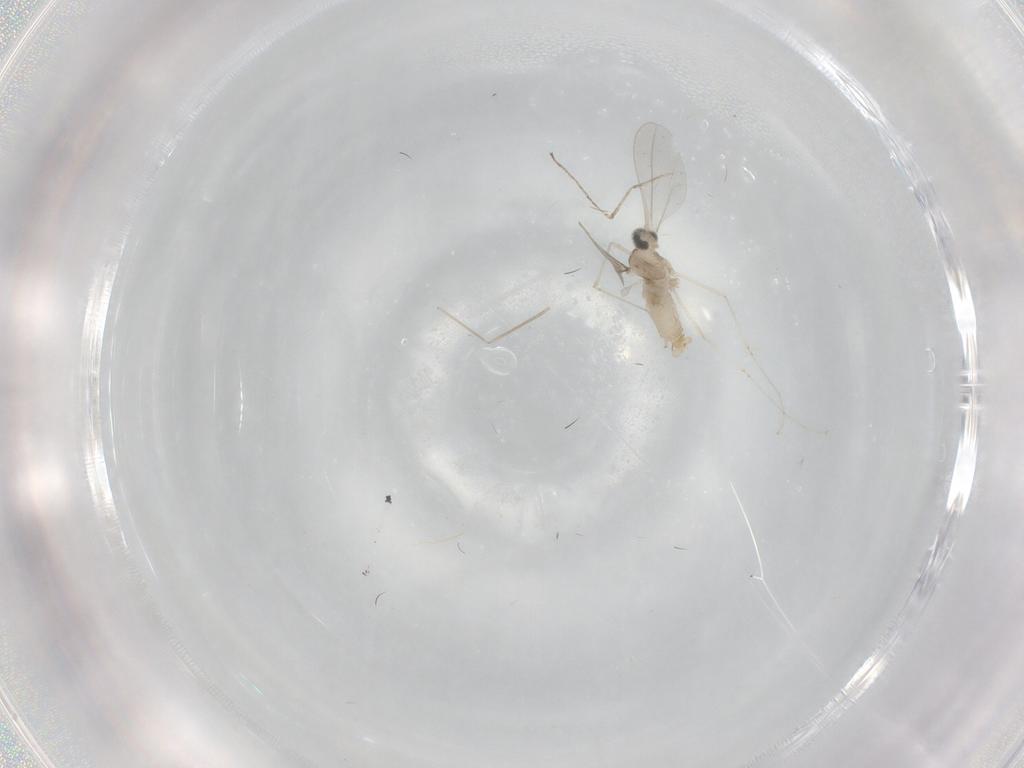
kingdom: Animalia
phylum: Arthropoda
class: Insecta
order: Diptera
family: Cecidomyiidae
